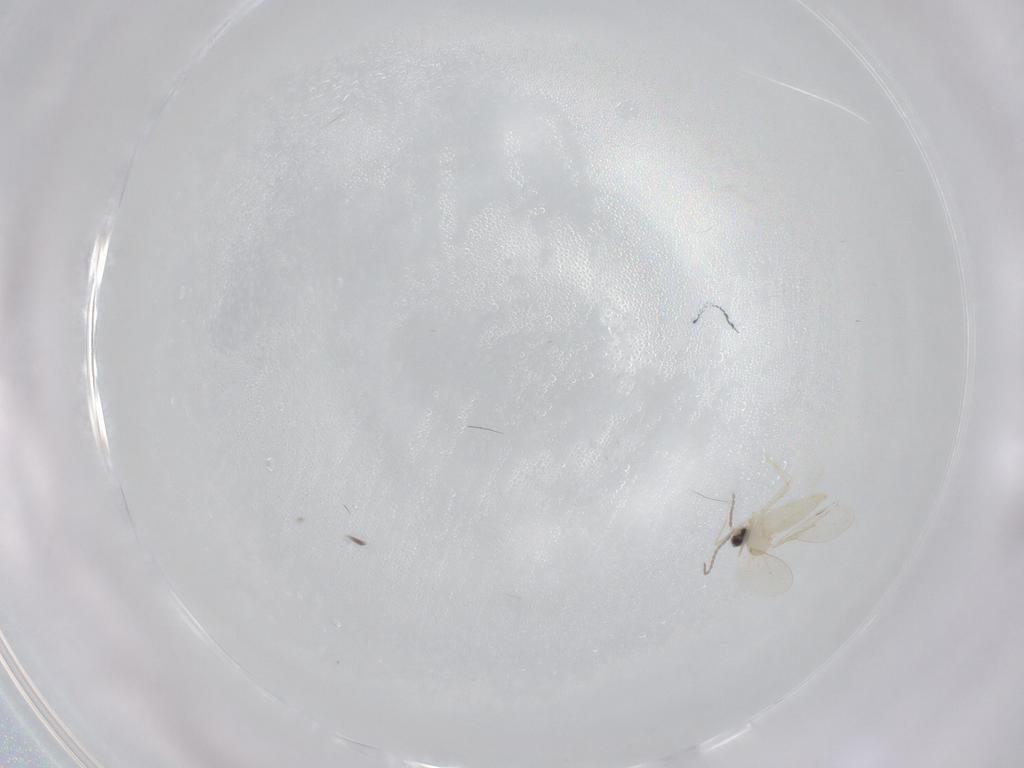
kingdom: Animalia
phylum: Arthropoda
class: Insecta
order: Diptera
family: Cecidomyiidae
